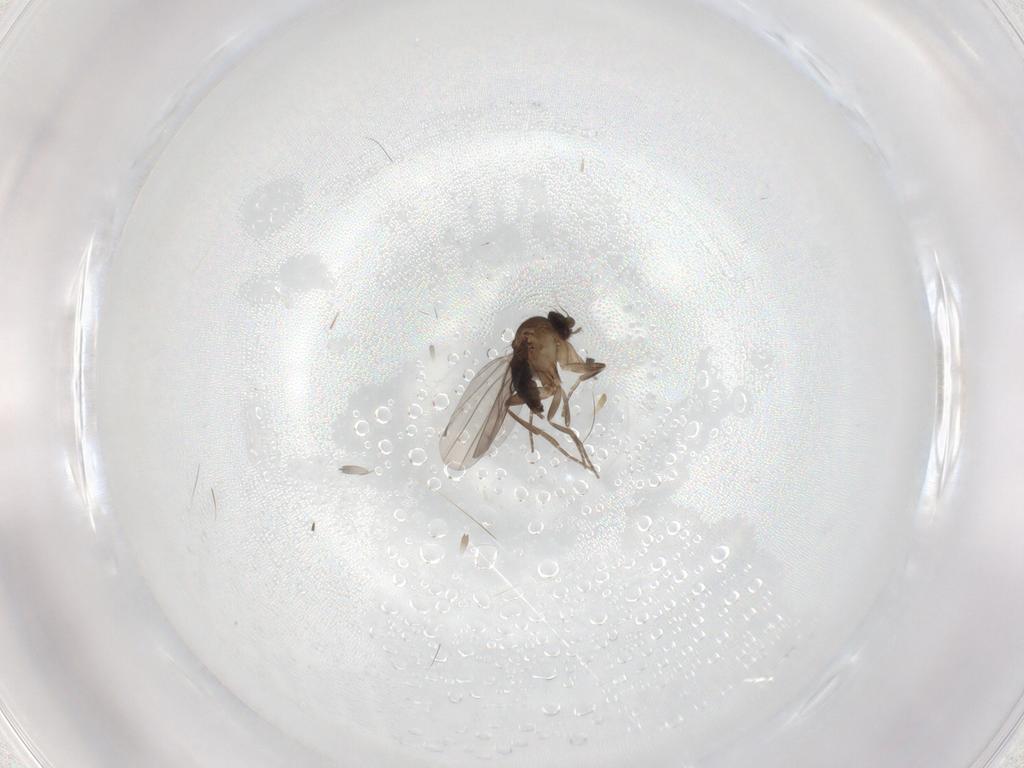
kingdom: Animalia
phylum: Arthropoda
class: Insecta
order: Diptera
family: Phoridae
